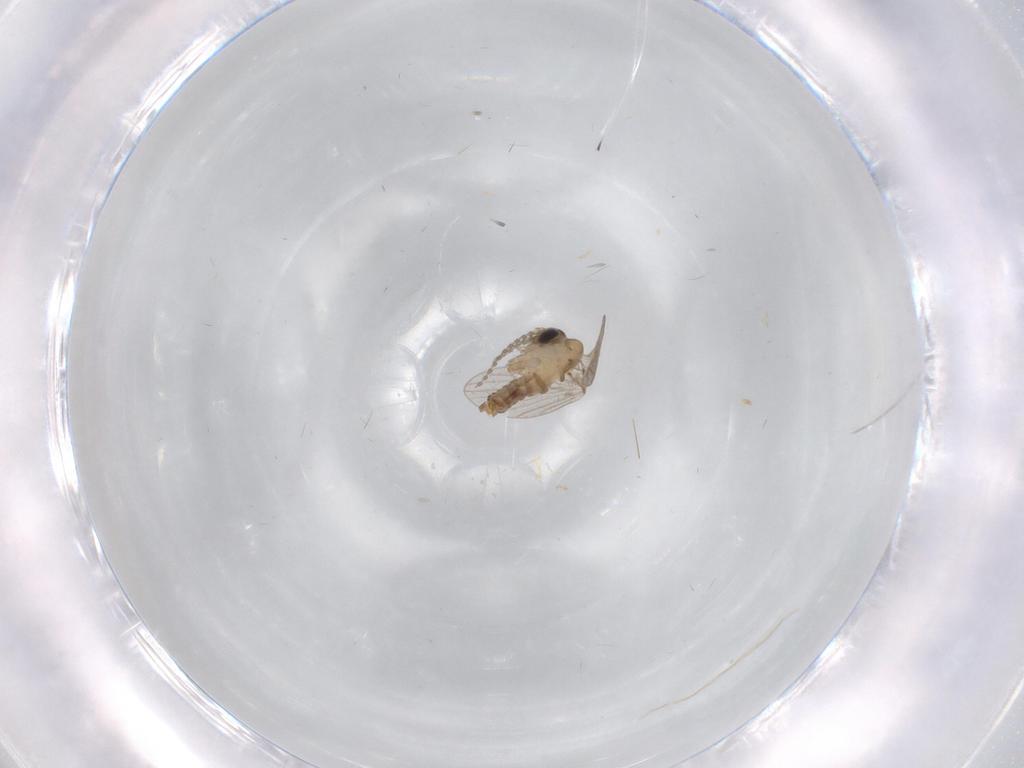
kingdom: Animalia
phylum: Arthropoda
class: Insecta
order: Diptera
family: Psychodidae
